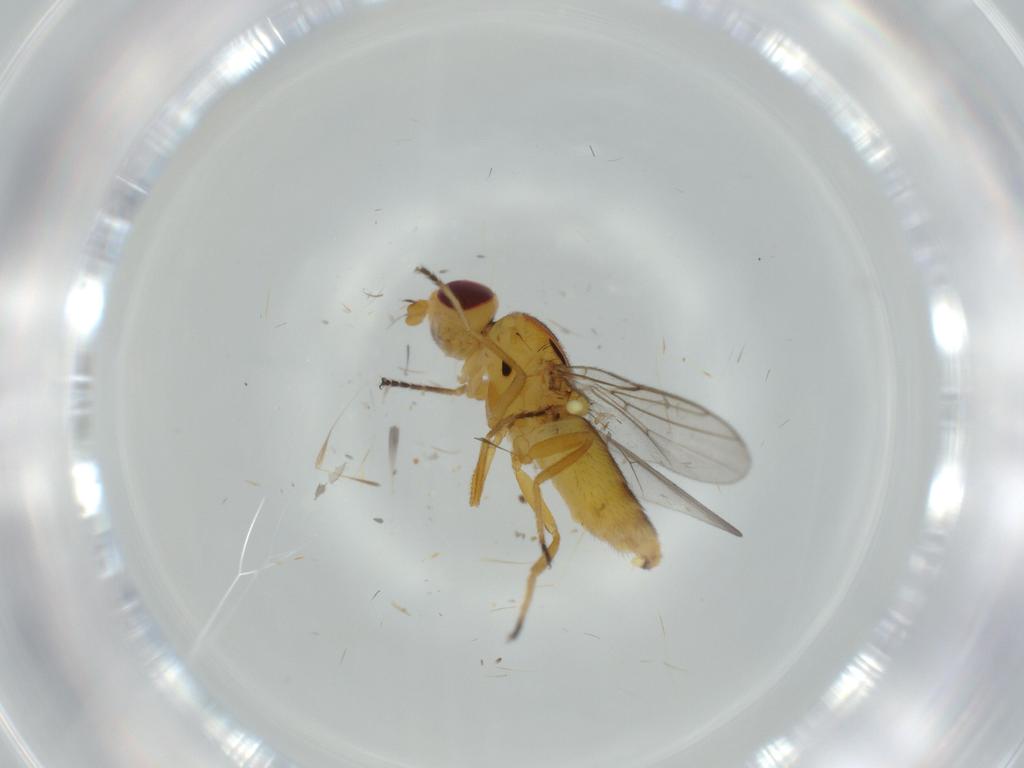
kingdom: Animalia
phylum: Arthropoda
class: Insecta
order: Diptera
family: Chloropidae
